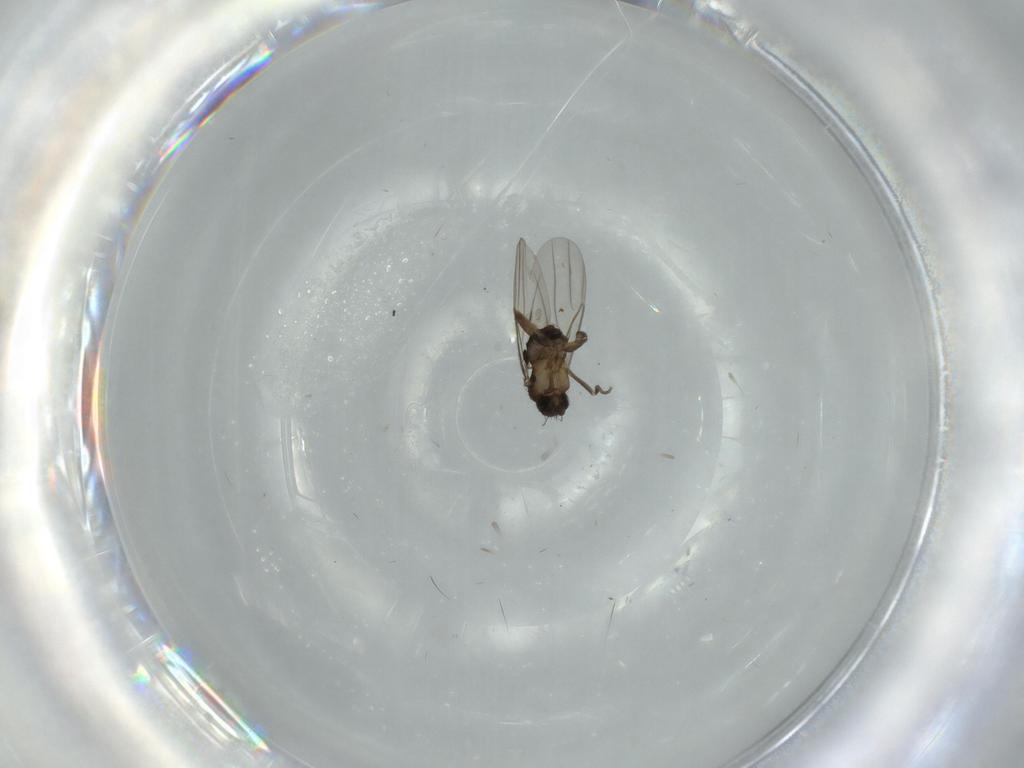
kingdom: Animalia
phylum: Arthropoda
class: Insecta
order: Diptera
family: Phoridae
